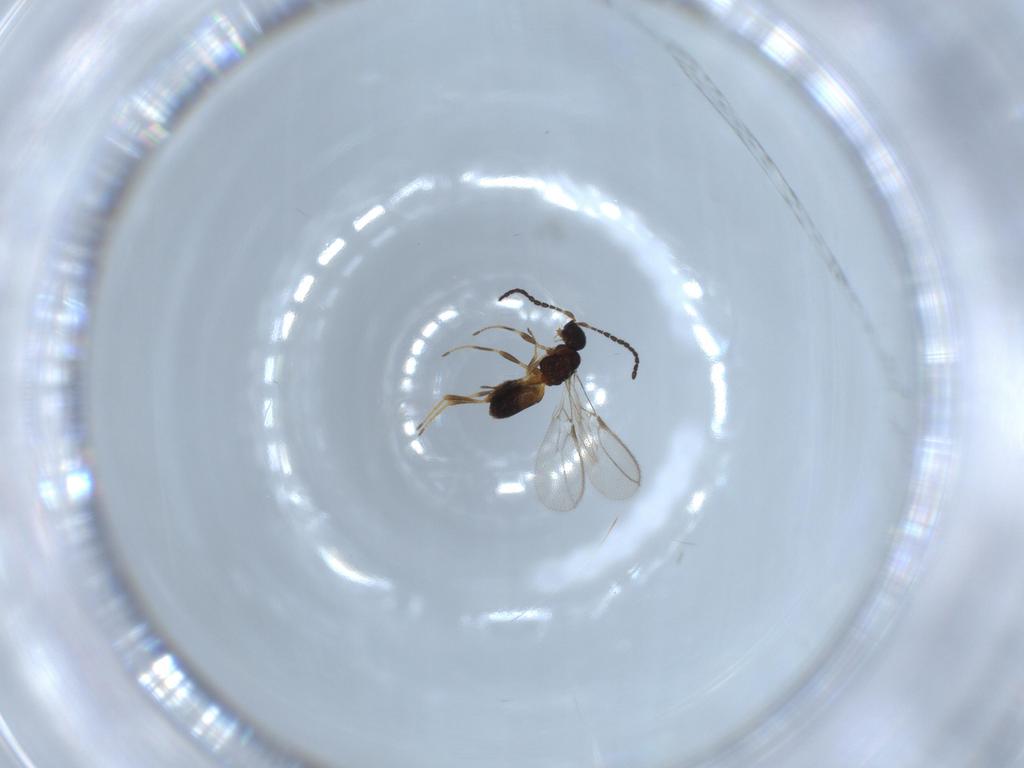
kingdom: Animalia
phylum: Arthropoda
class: Insecta
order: Hymenoptera
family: Braconidae
